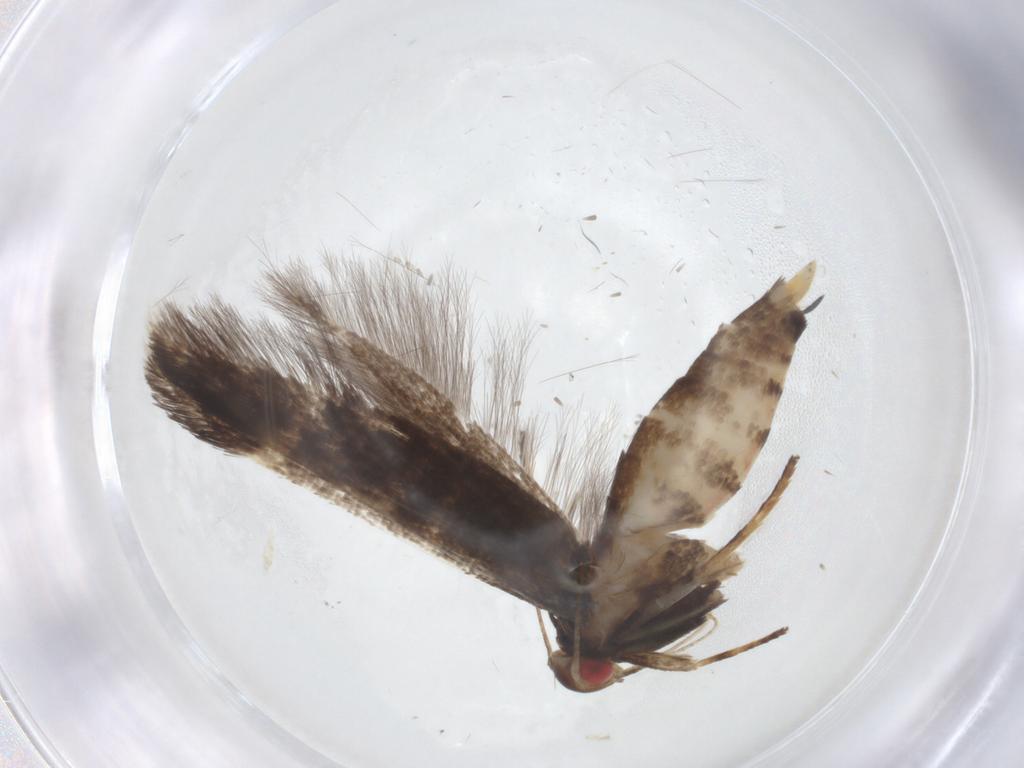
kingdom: Animalia
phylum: Arthropoda
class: Insecta
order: Lepidoptera
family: Gelechiidae
